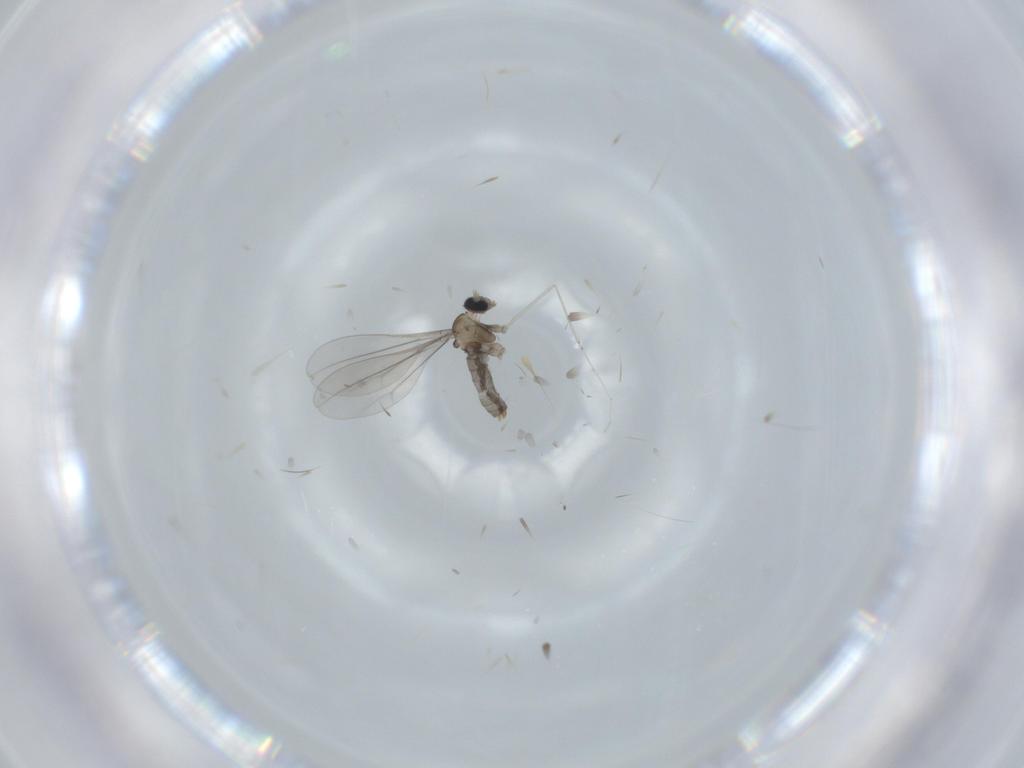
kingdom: Animalia
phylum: Arthropoda
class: Insecta
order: Diptera
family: Cecidomyiidae
